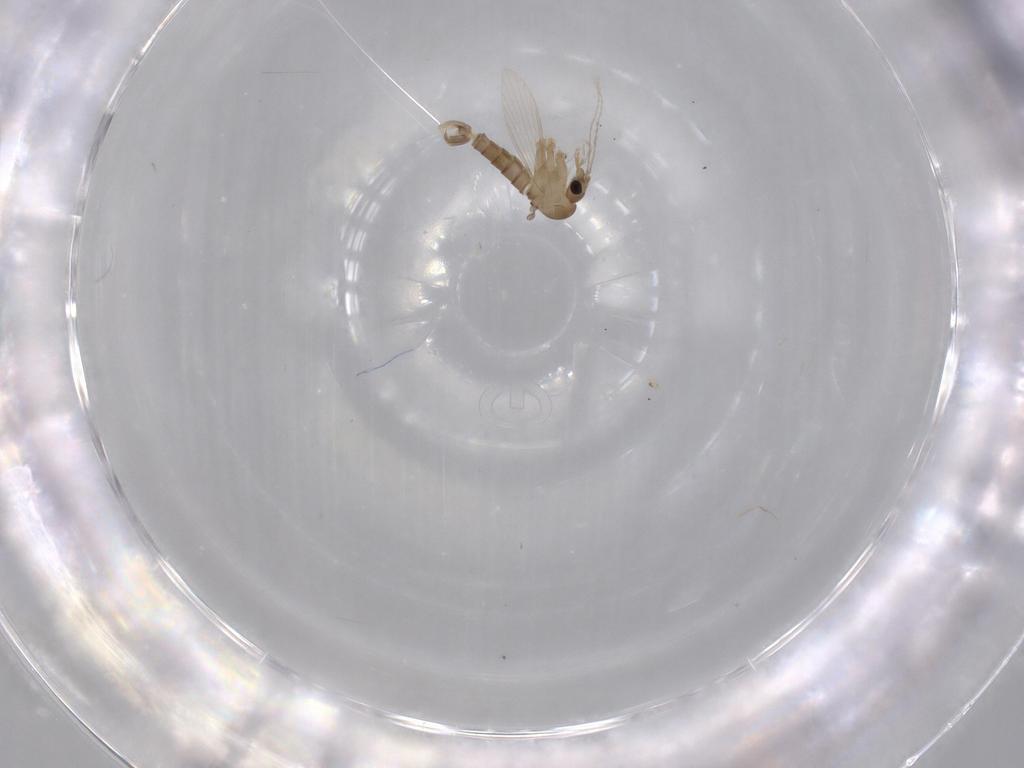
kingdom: Animalia
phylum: Arthropoda
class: Insecta
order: Diptera
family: Psychodidae
